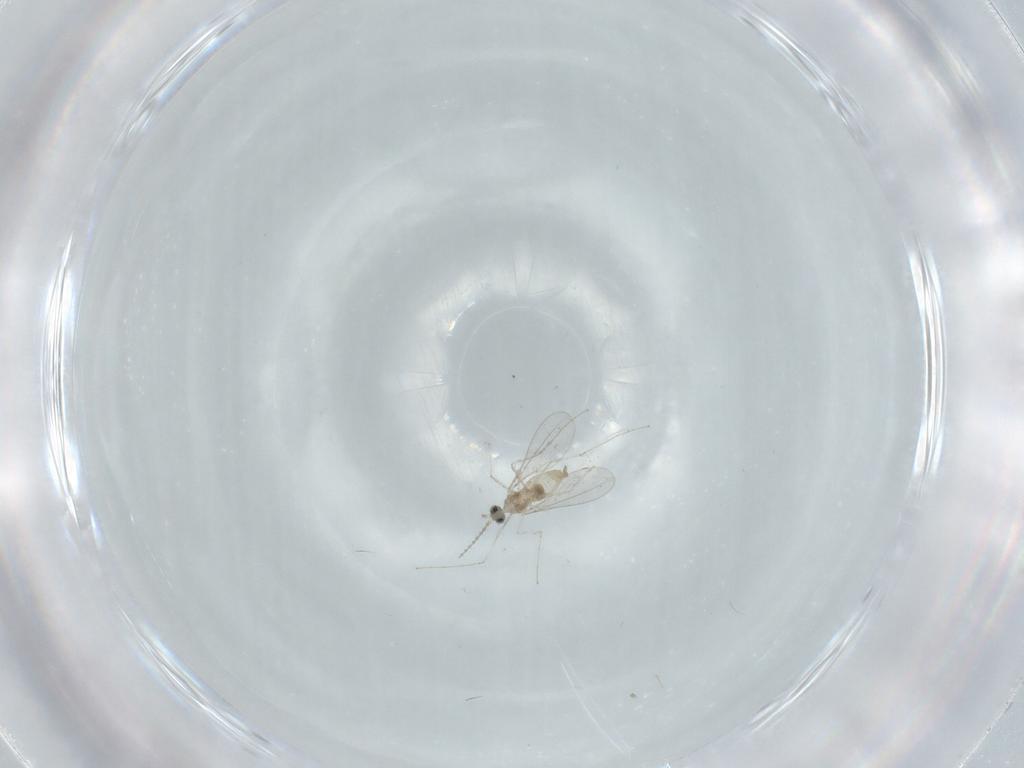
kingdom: Animalia
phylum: Arthropoda
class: Insecta
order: Diptera
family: Cecidomyiidae
